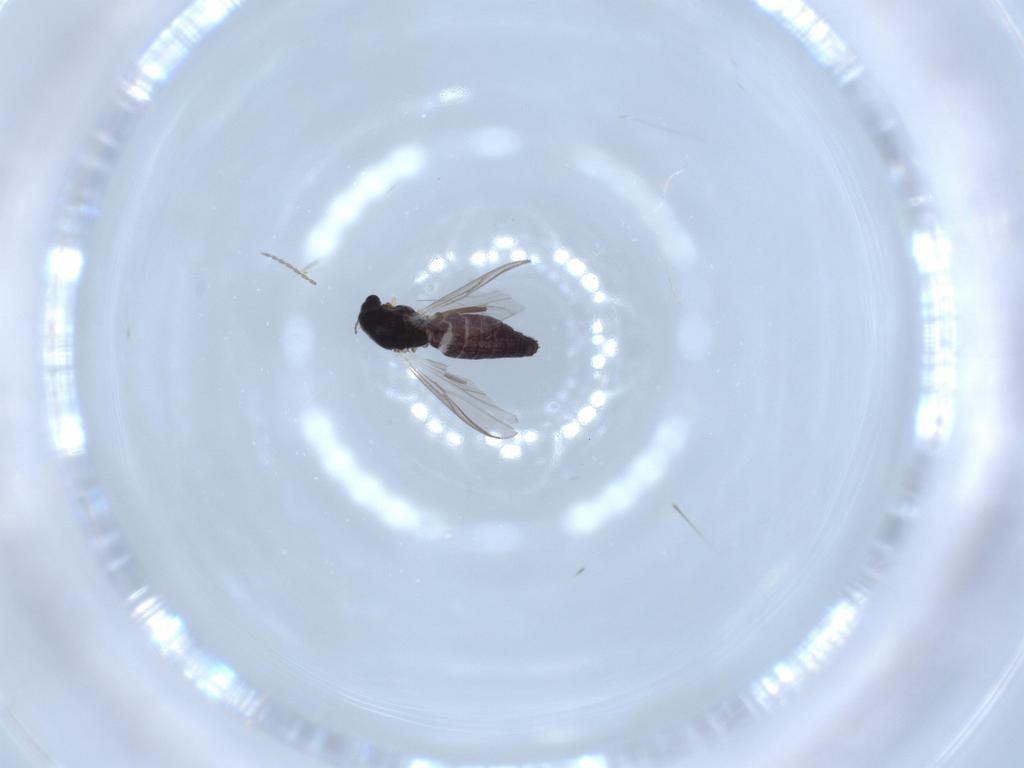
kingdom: Animalia
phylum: Arthropoda
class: Insecta
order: Diptera
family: Chironomidae
